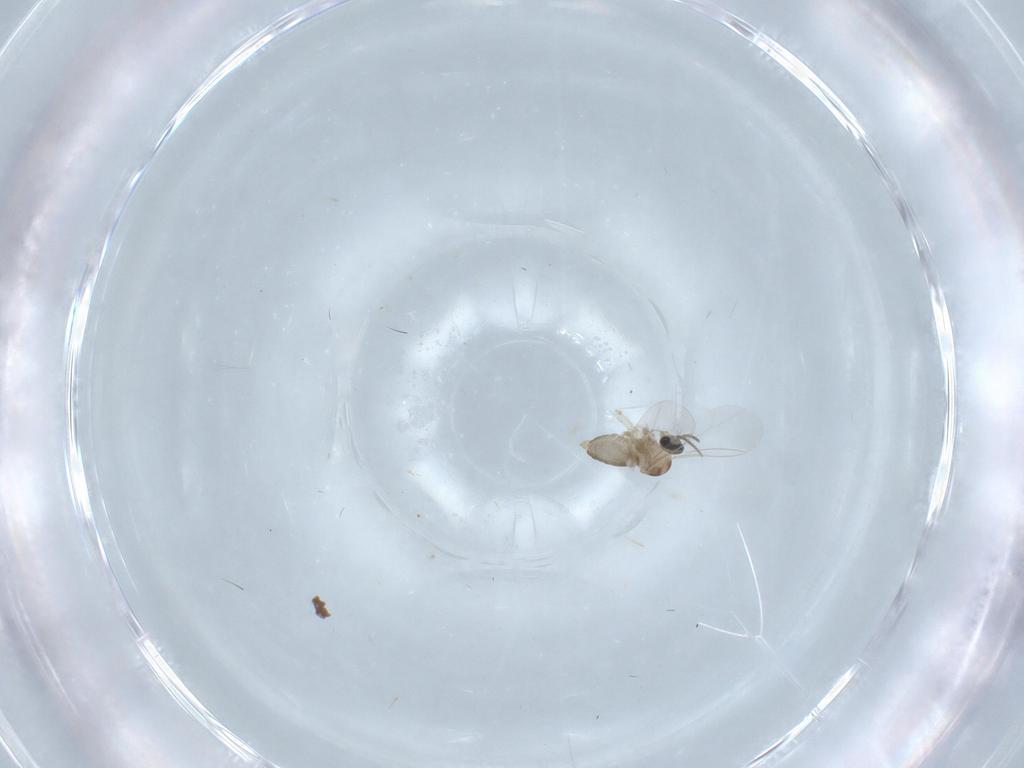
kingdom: Animalia
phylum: Arthropoda
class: Insecta
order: Diptera
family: Cecidomyiidae
